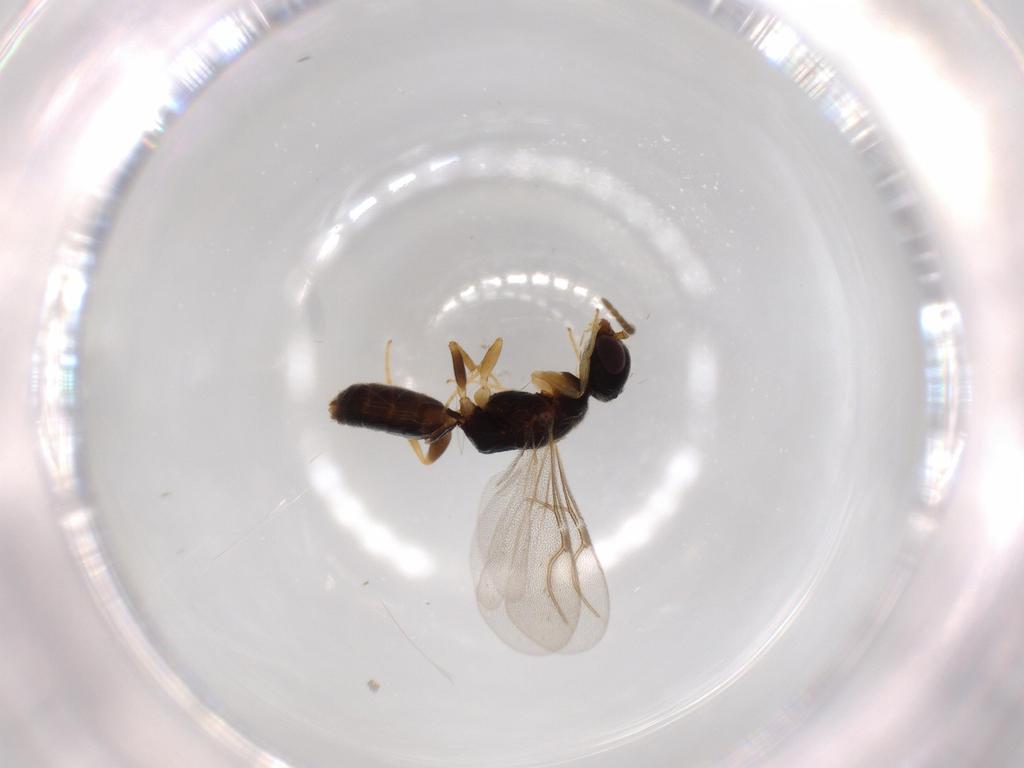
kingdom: Animalia
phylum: Arthropoda
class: Insecta
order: Hymenoptera
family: Bethylidae
